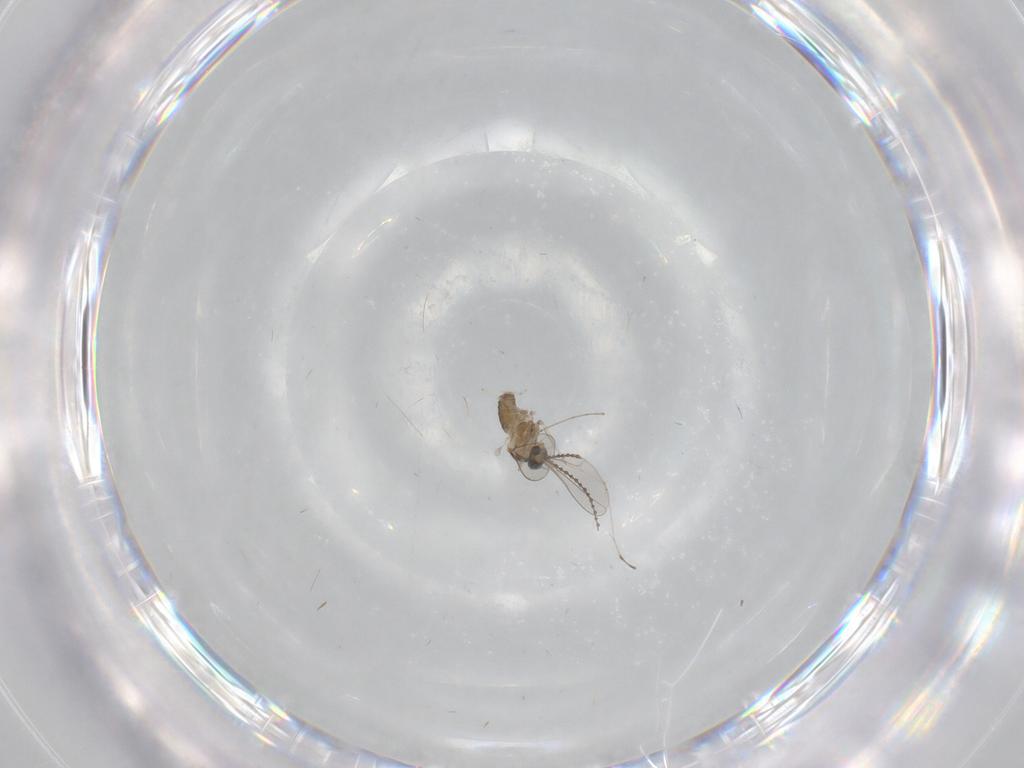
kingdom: Animalia
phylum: Arthropoda
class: Insecta
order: Diptera
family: Cecidomyiidae
